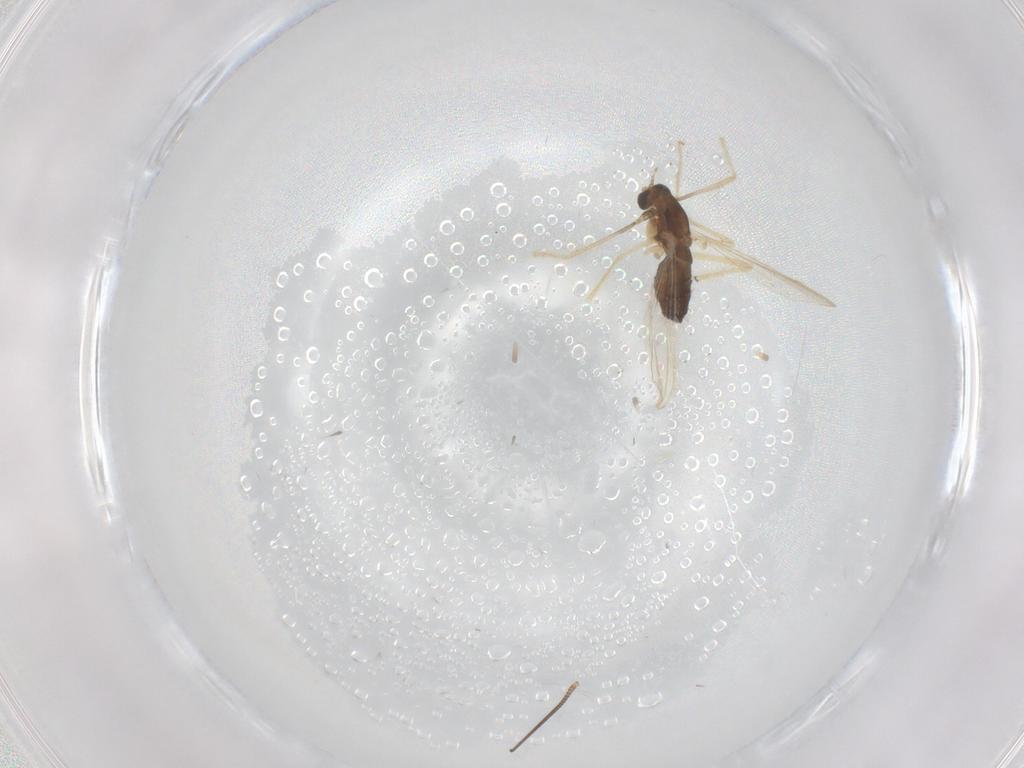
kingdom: Animalia
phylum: Arthropoda
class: Insecta
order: Diptera
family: Chironomidae
